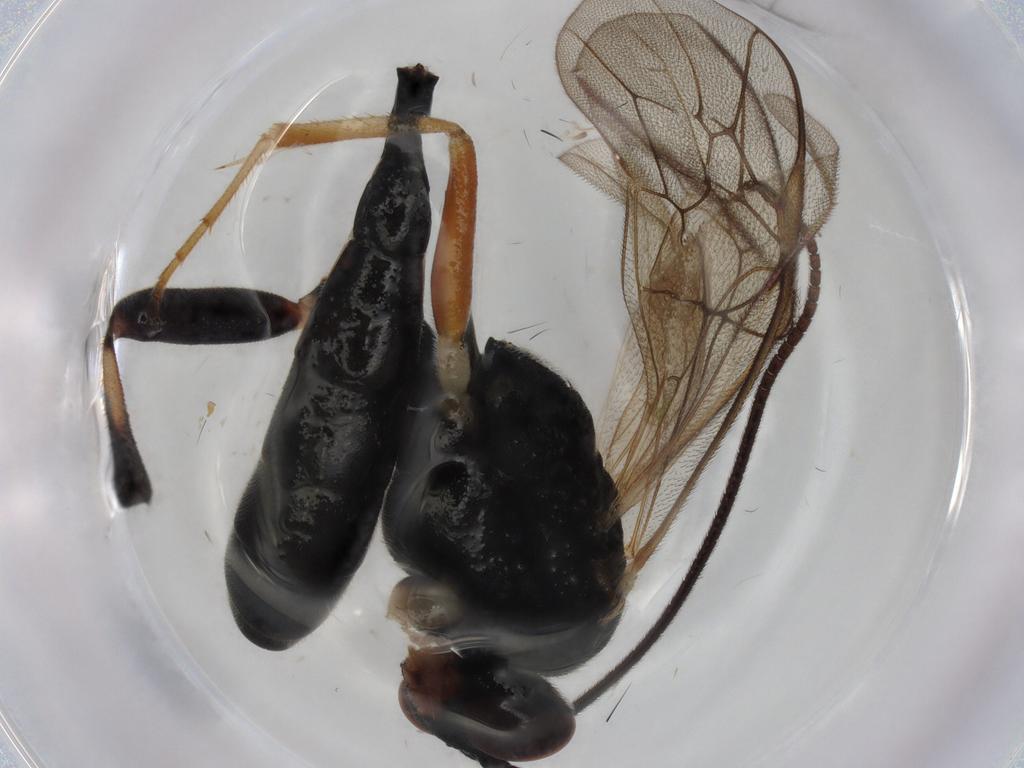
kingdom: Animalia
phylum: Arthropoda
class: Insecta
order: Hymenoptera
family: Ichneumonidae
